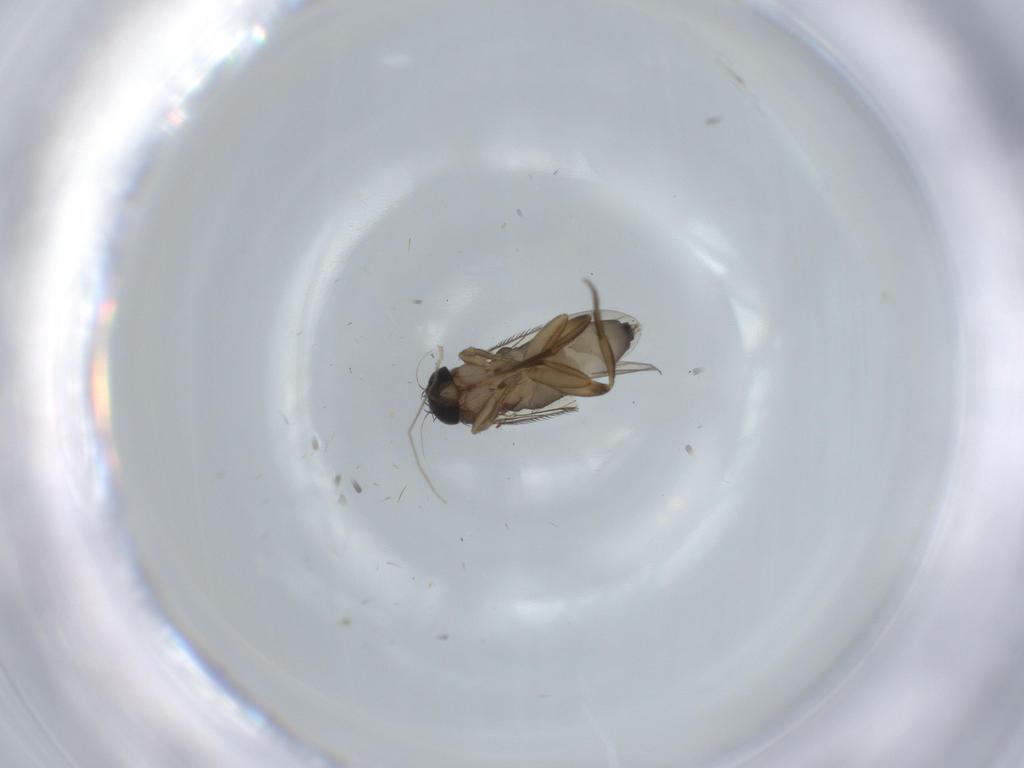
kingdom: Animalia
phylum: Arthropoda
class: Insecta
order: Diptera
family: Phoridae
